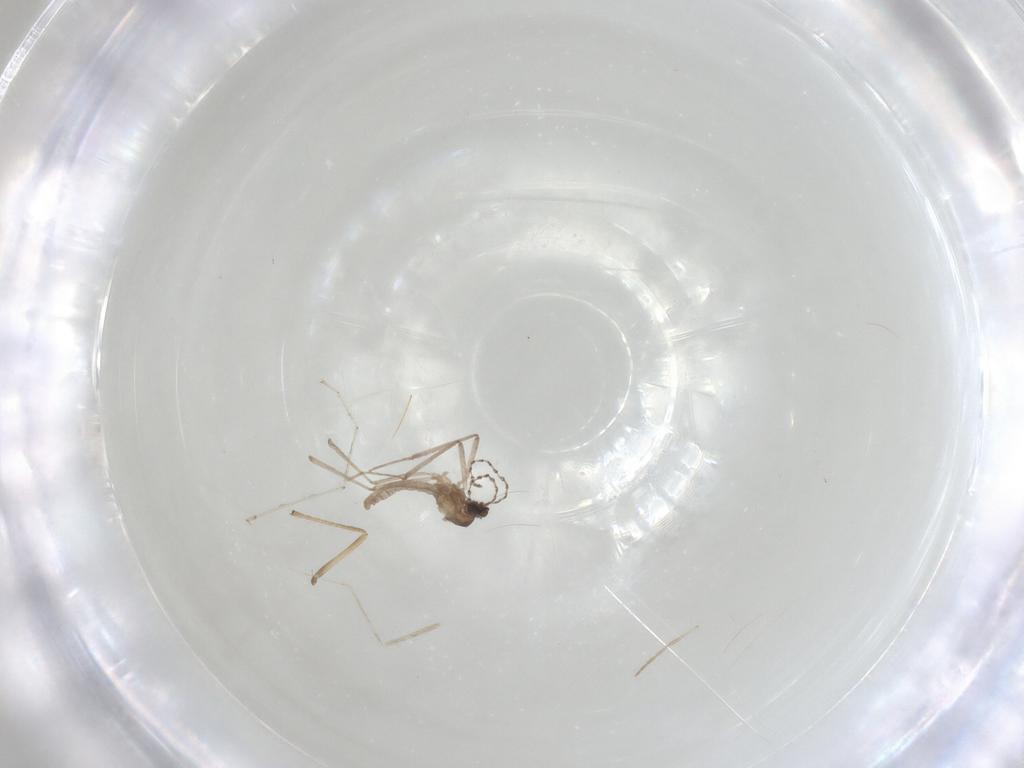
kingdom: Animalia
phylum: Arthropoda
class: Insecta
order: Diptera
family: Cecidomyiidae
